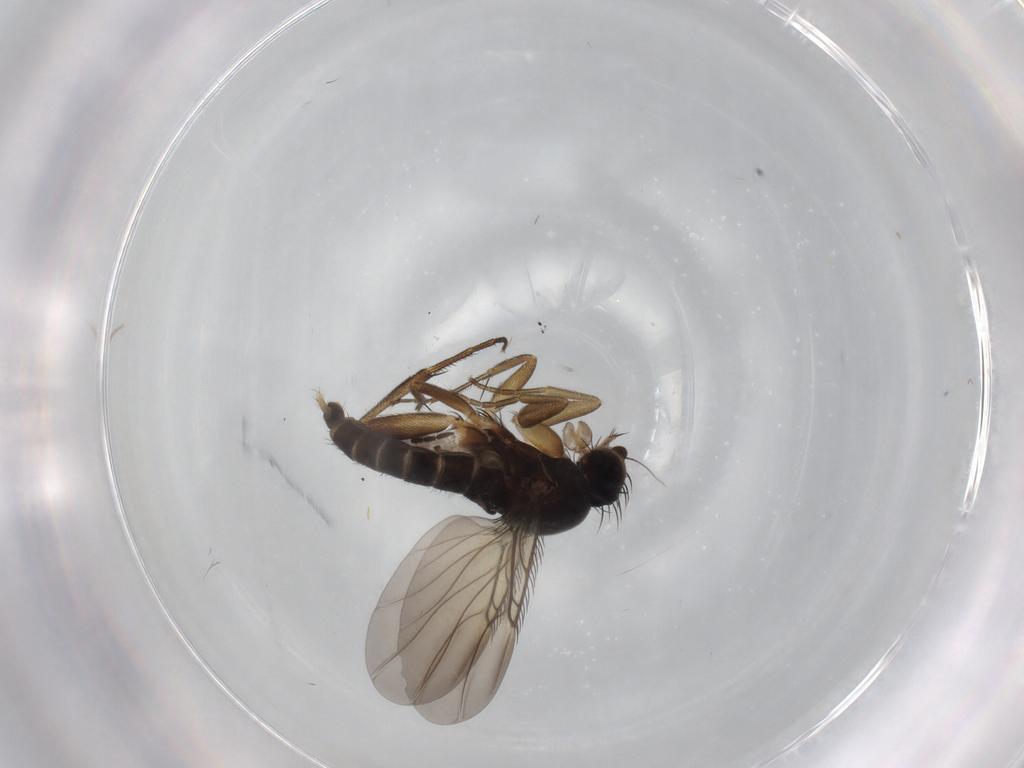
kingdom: Animalia
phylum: Arthropoda
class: Insecta
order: Diptera
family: Phoridae
